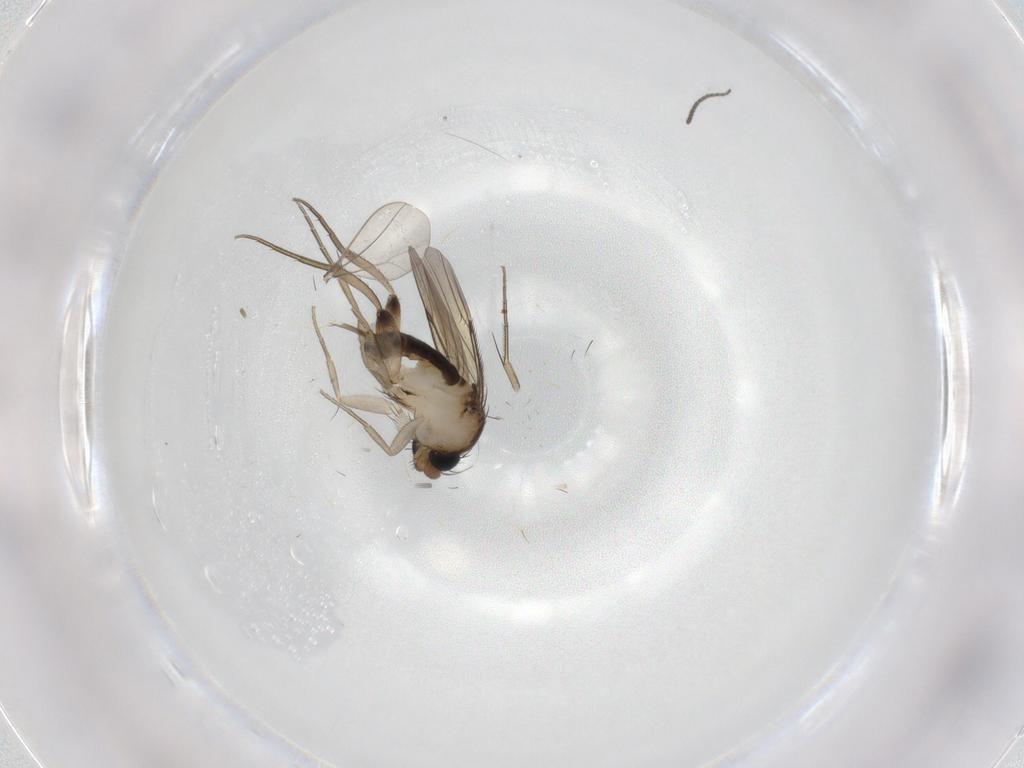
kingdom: Animalia
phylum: Arthropoda
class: Insecta
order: Diptera
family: Phoridae
